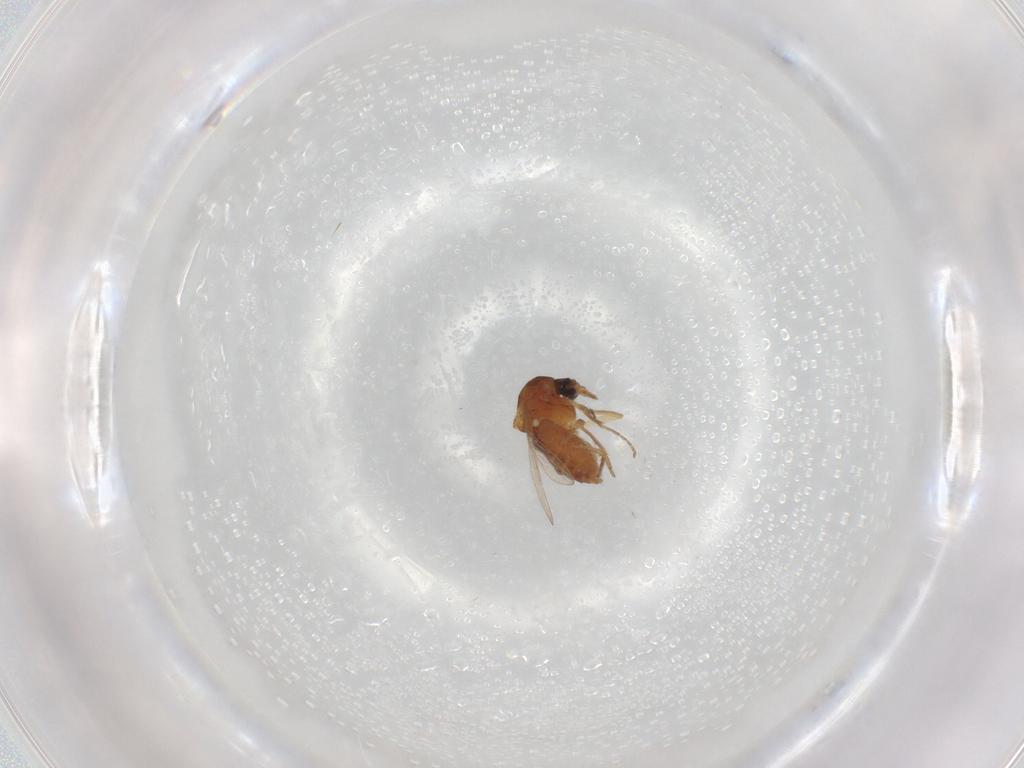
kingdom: Animalia
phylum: Arthropoda
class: Insecta
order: Diptera
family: Ceratopogonidae
